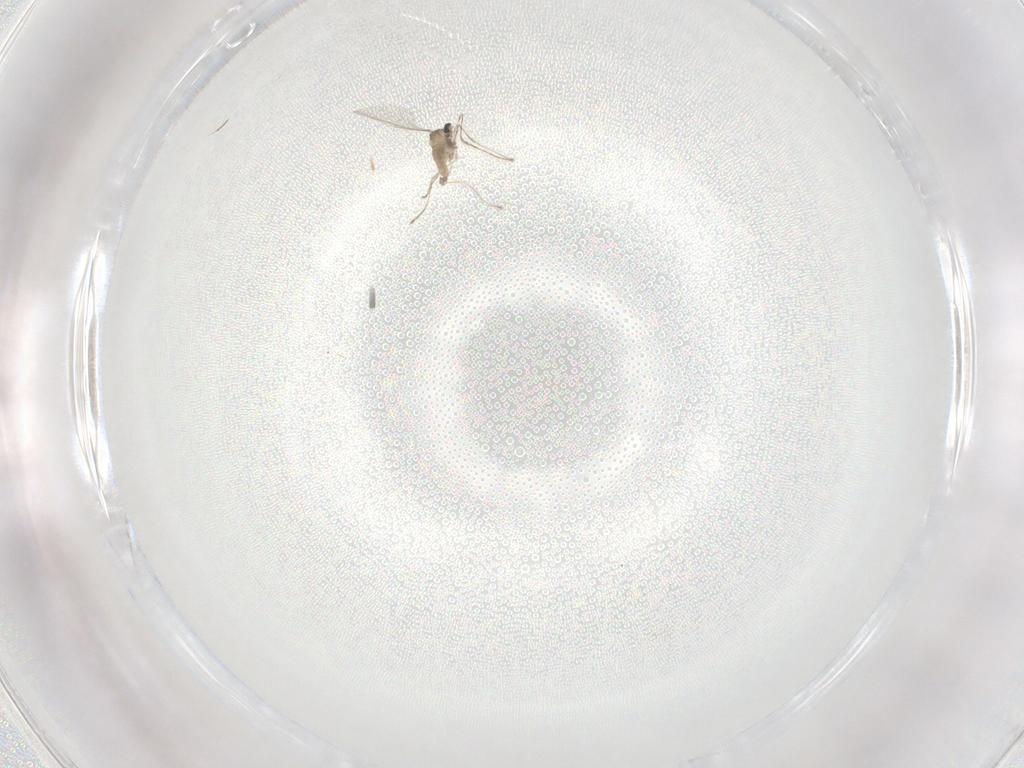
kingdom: Animalia
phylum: Arthropoda
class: Insecta
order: Diptera
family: Cecidomyiidae
